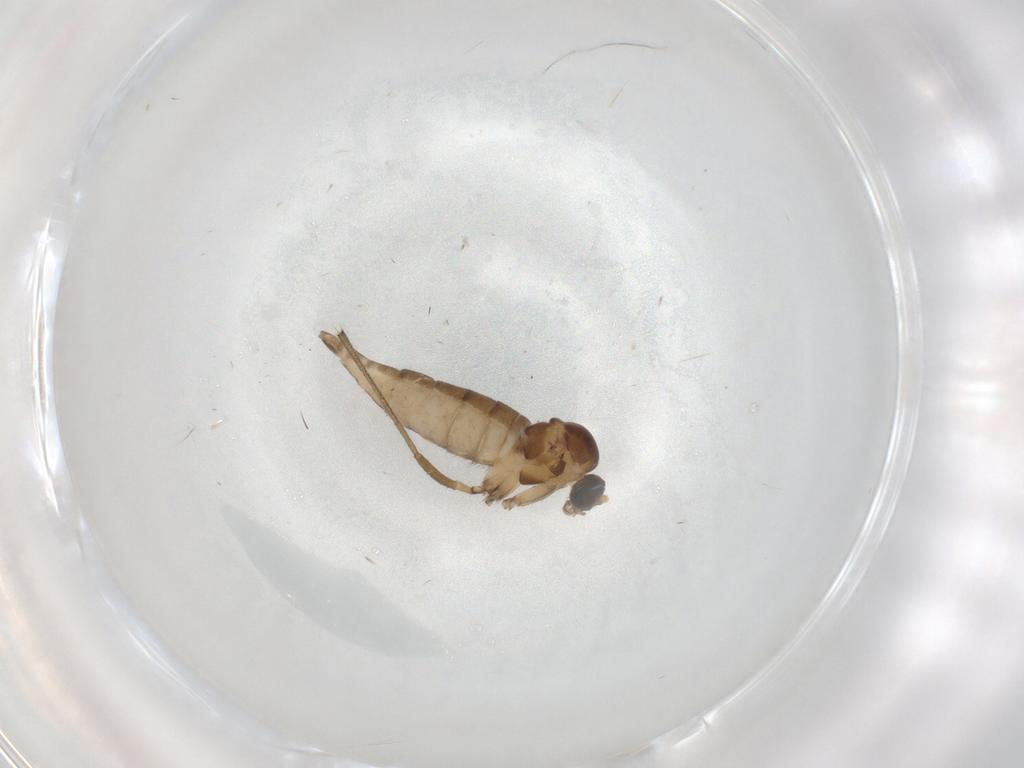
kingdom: Animalia
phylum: Arthropoda
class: Insecta
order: Diptera
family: Sciaridae
